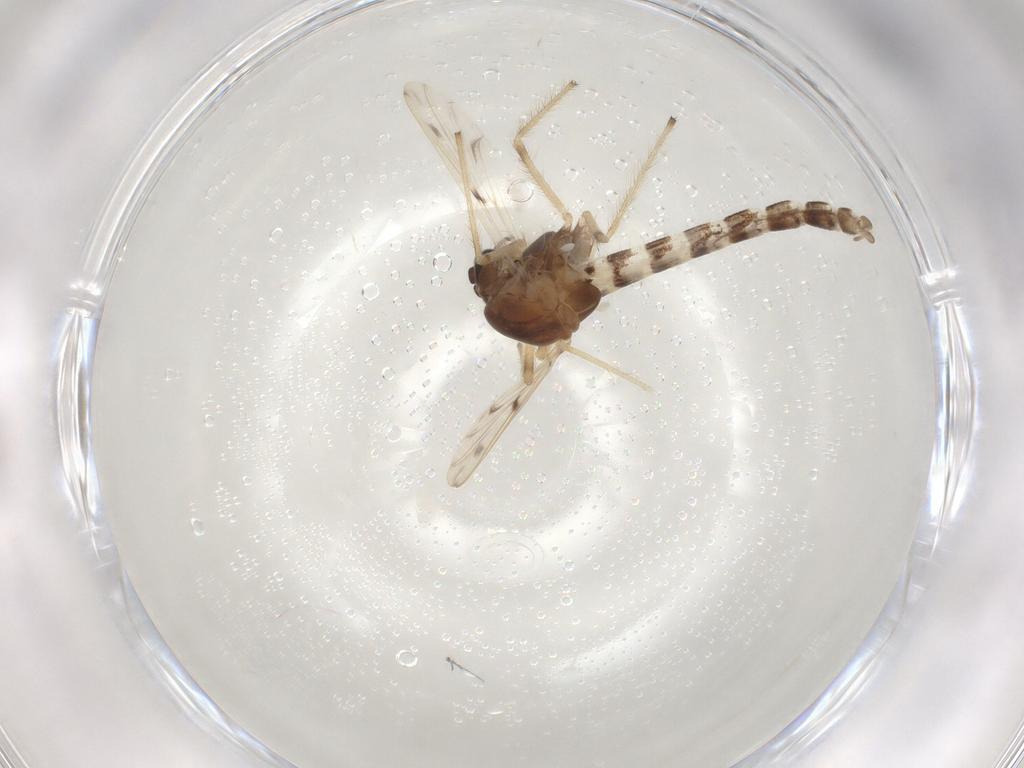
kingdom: Animalia
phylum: Arthropoda
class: Insecta
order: Diptera
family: Chironomidae
